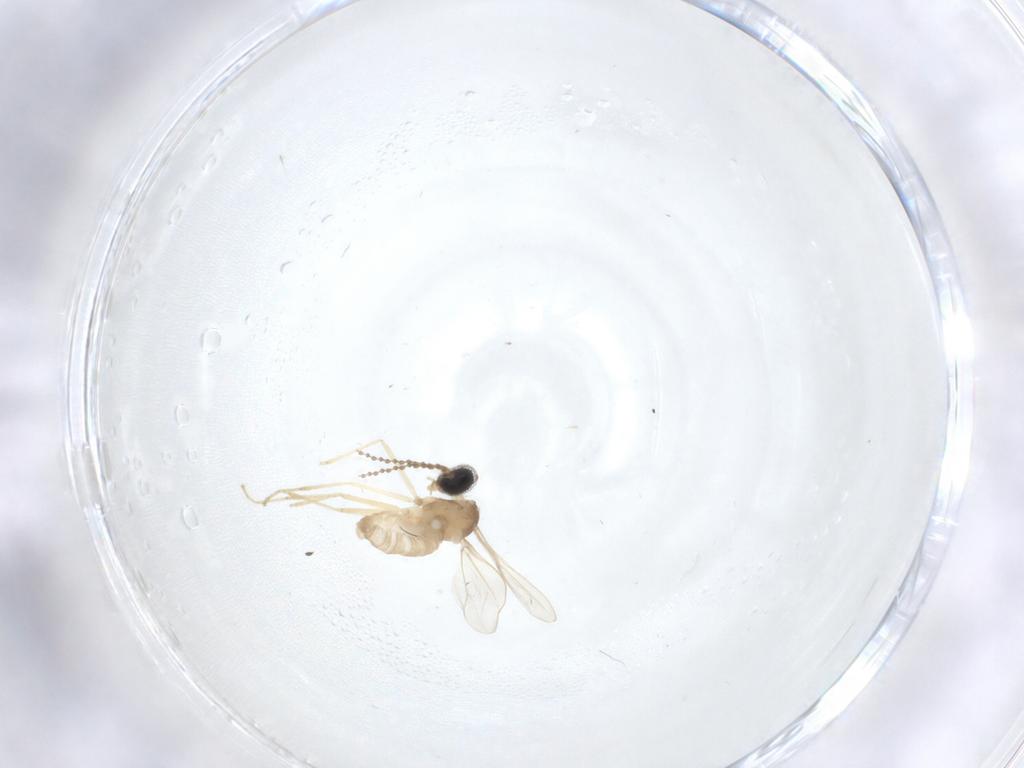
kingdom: Animalia
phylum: Arthropoda
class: Insecta
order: Diptera
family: Cecidomyiidae
